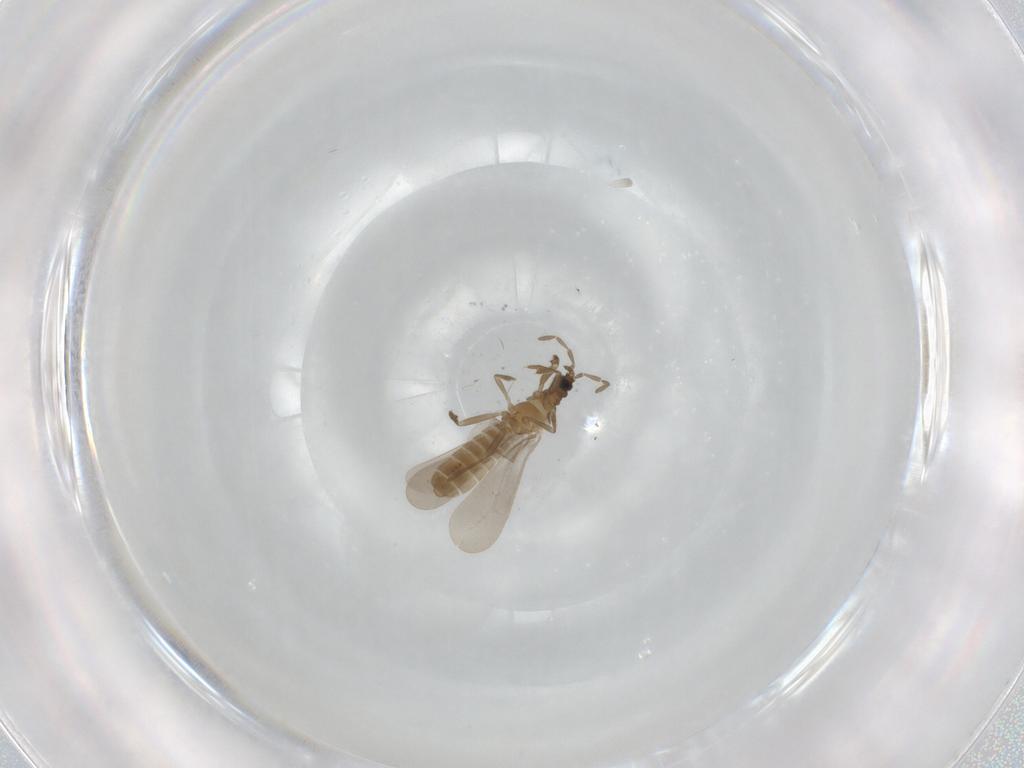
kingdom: Animalia
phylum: Arthropoda
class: Insecta
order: Hemiptera
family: Enicocephalidae
